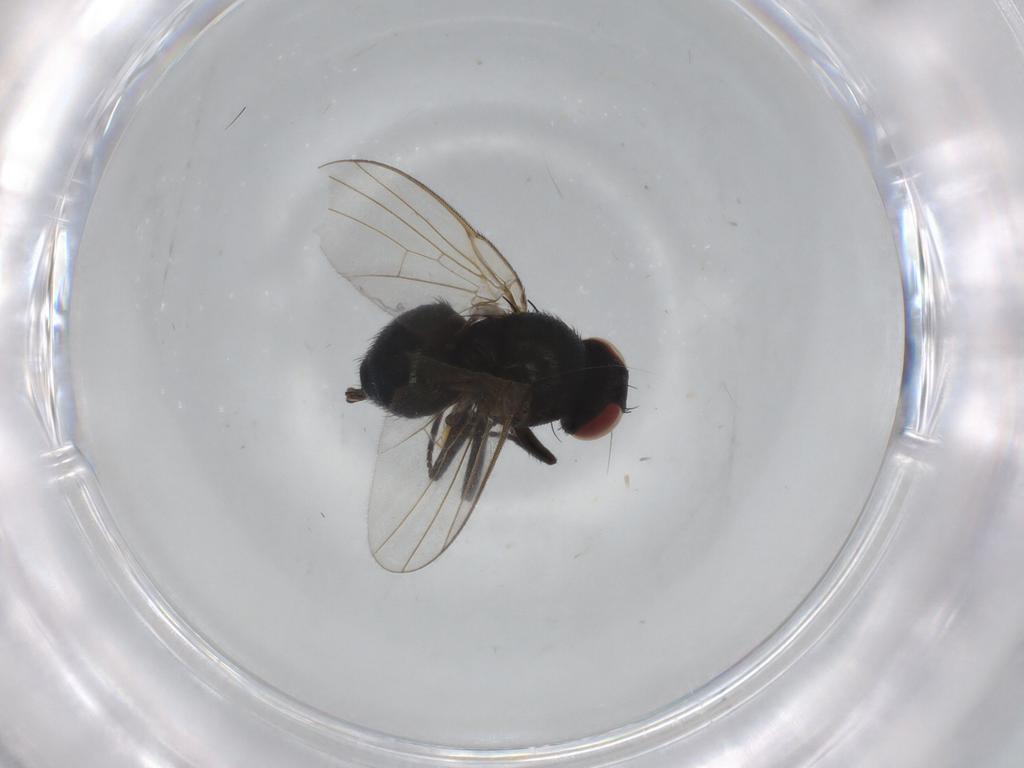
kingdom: Animalia
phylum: Arthropoda
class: Insecta
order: Diptera
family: Agromyzidae
